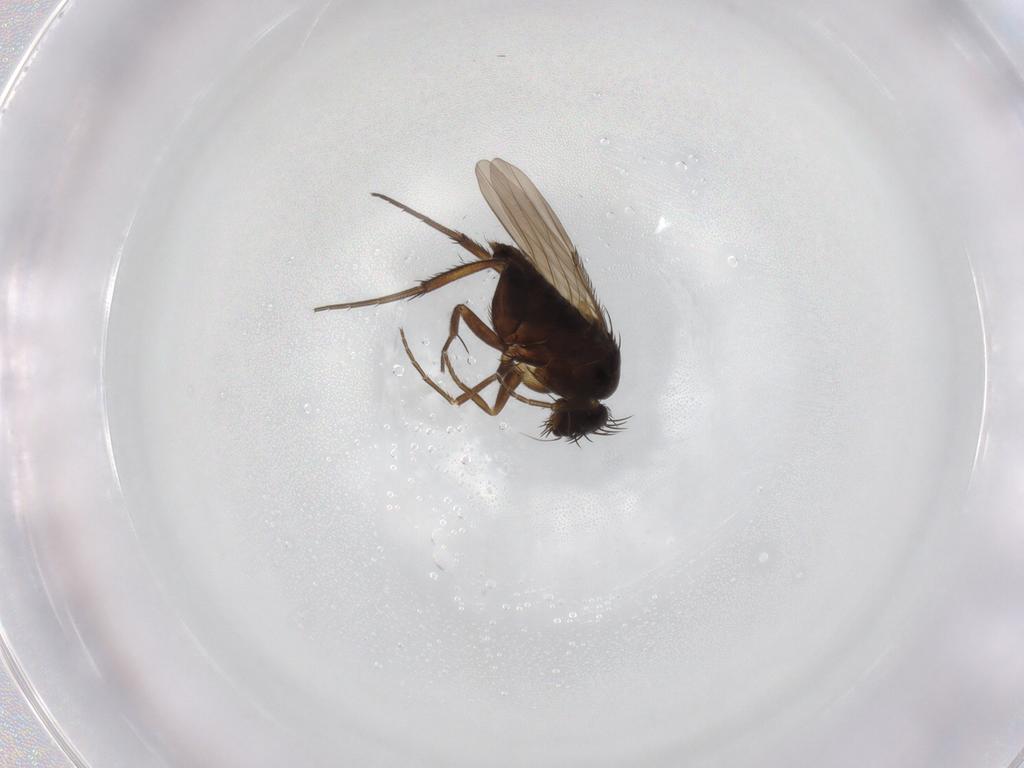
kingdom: Animalia
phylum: Arthropoda
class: Insecta
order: Diptera
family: Phoridae
